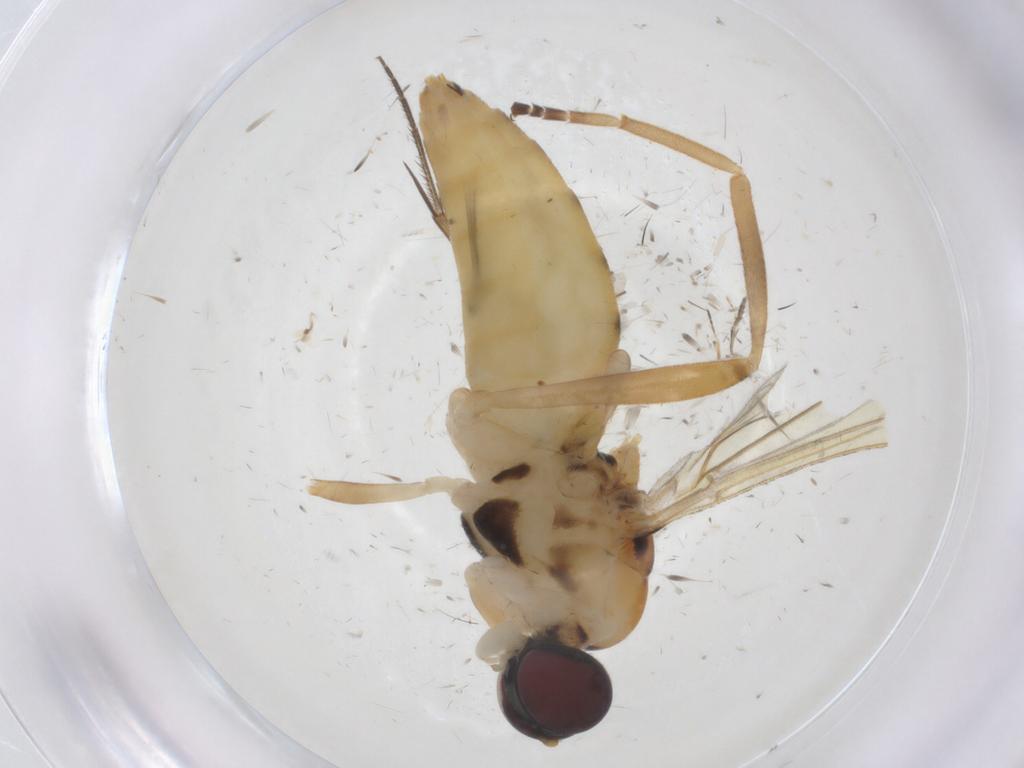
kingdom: Animalia
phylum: Arthropoda
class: Insecta
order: Diptera
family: Stratiomyidae
